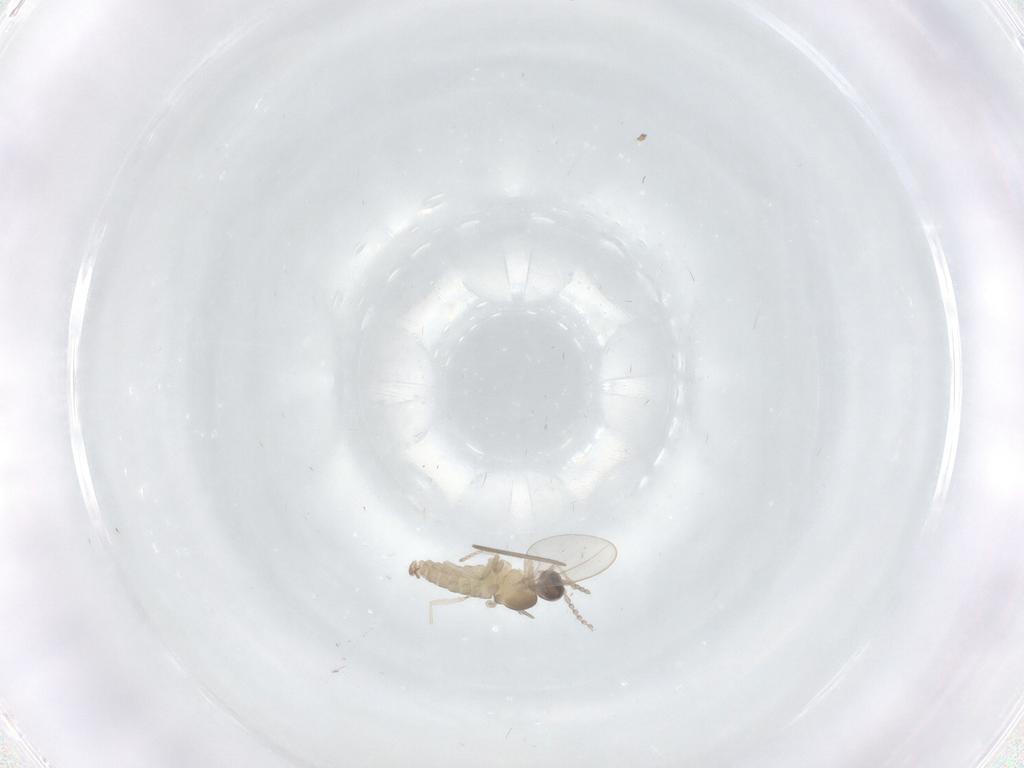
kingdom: Animalia
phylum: Arthropoda
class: Insecta
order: Diptera
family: Cecidomyiidae
